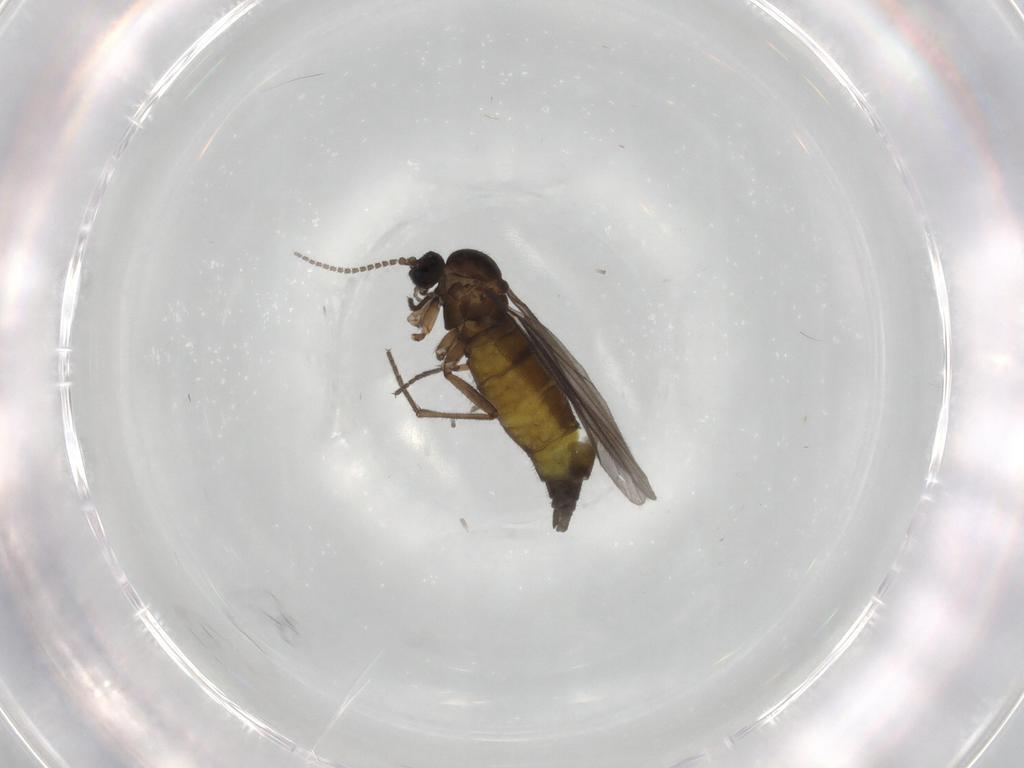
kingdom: Animalia
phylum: Arthropoda
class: Insecta
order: Diptera
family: Sciaridae
